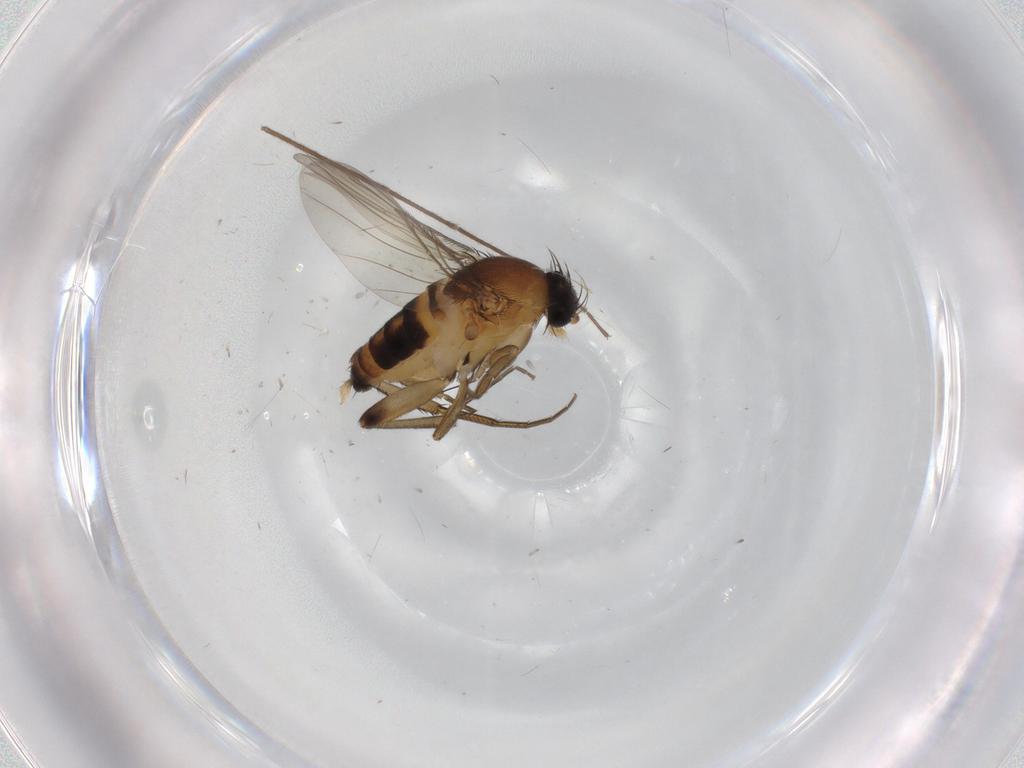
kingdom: Animalia
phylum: Arthropoda
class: Insecta
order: Diptera
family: Phoridae
